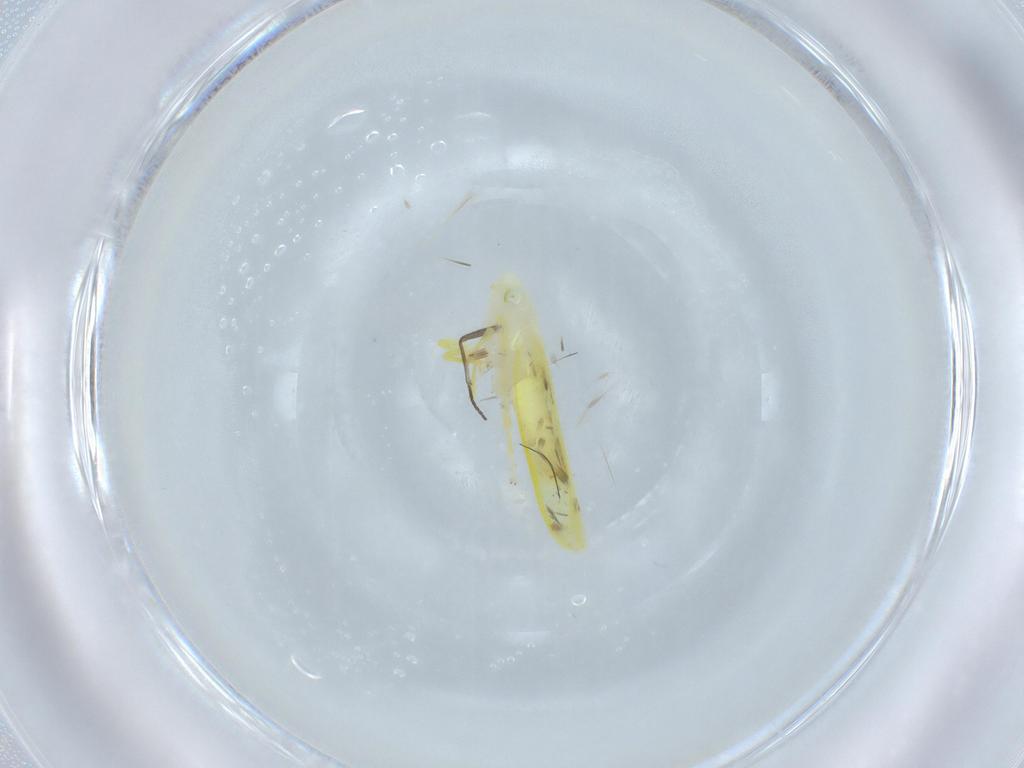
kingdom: Animalia
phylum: Arthropoda
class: Insecta
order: Hemiptera
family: Cicadellidae
